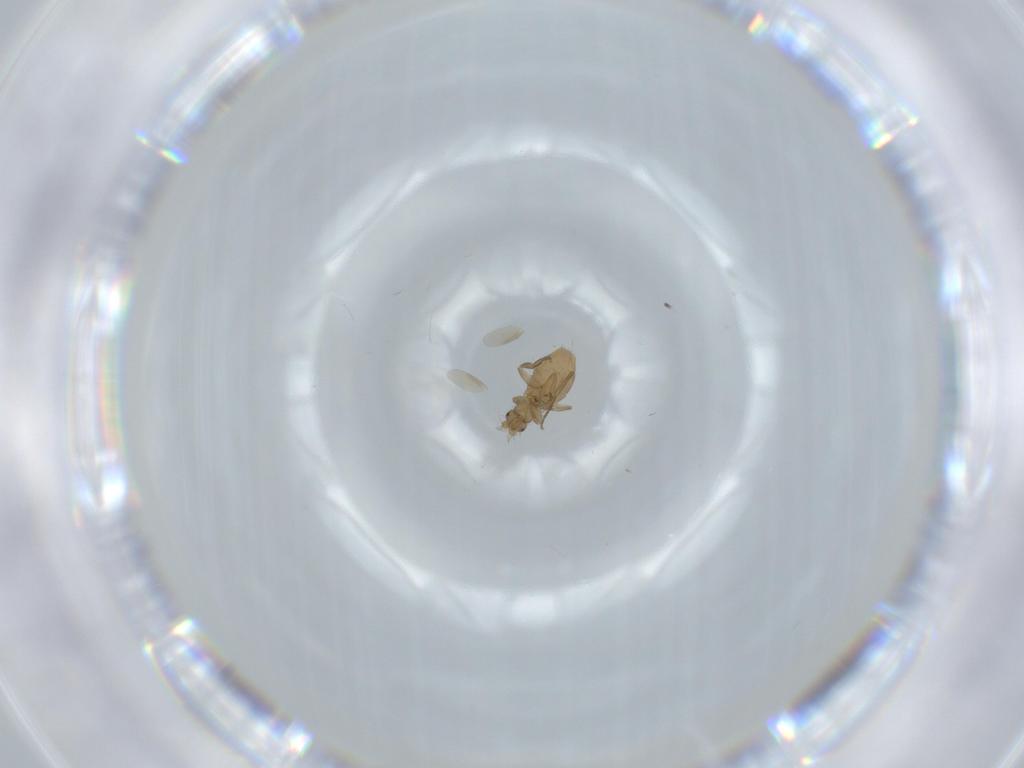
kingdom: Animalia
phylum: Arthropoda
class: Insecta
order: Diptera
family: Phoridae
